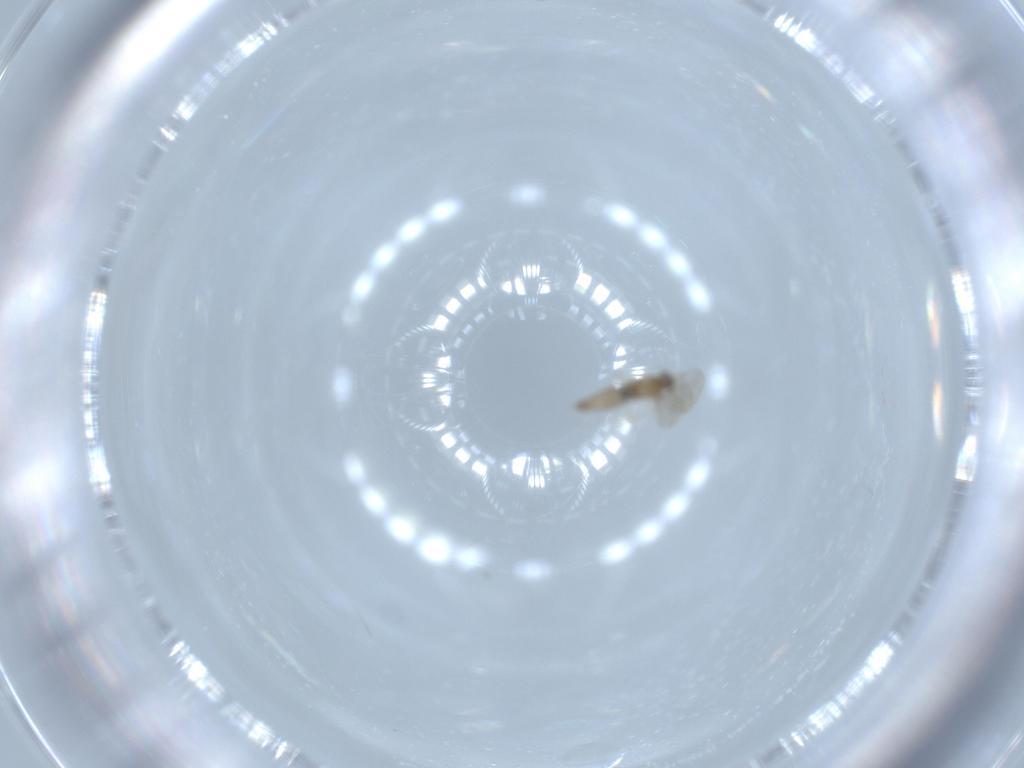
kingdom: Animalia
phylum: Arthropoda
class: Insecta
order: Diptera
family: Cecidomyiidae
